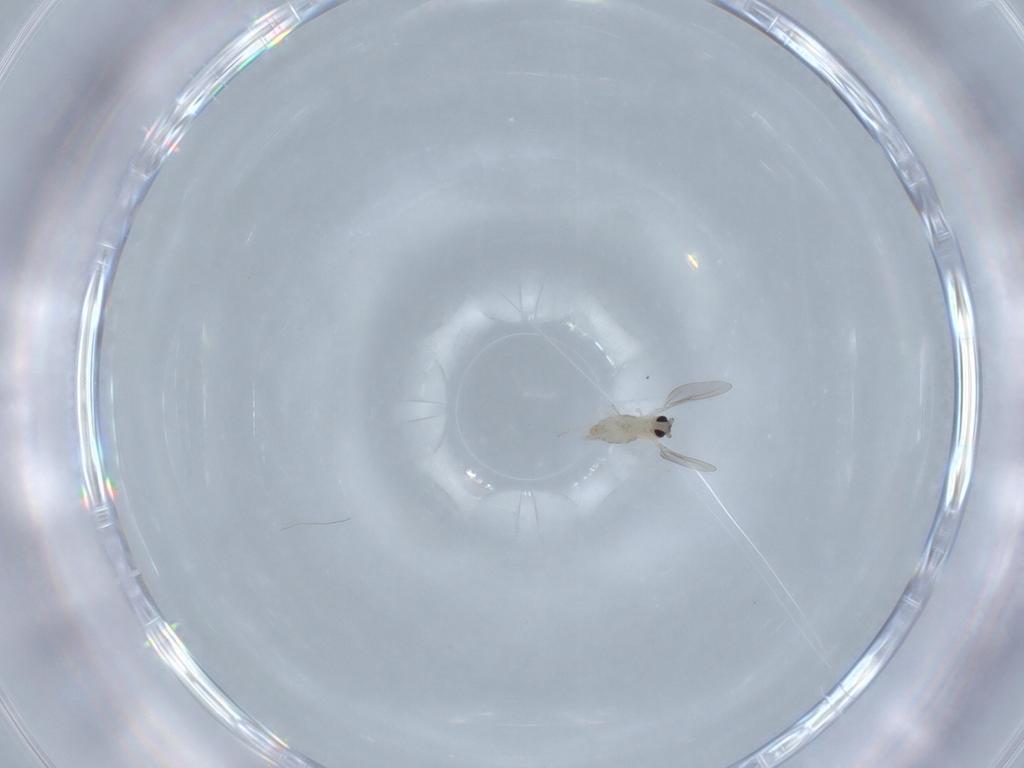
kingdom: Animalia
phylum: Arthropoda
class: Insecta
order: Diptera
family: Cecidomyiidae
